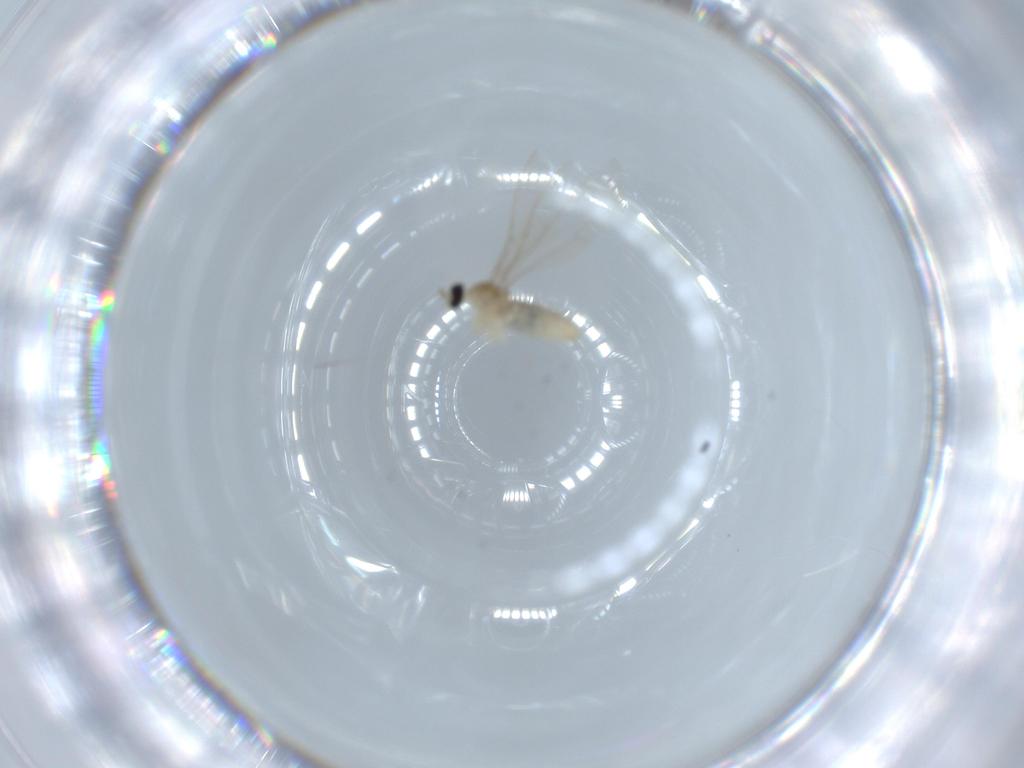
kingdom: Animalia
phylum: Arthropoda
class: Insecta
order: Diptera
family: Cecidomyiidae
